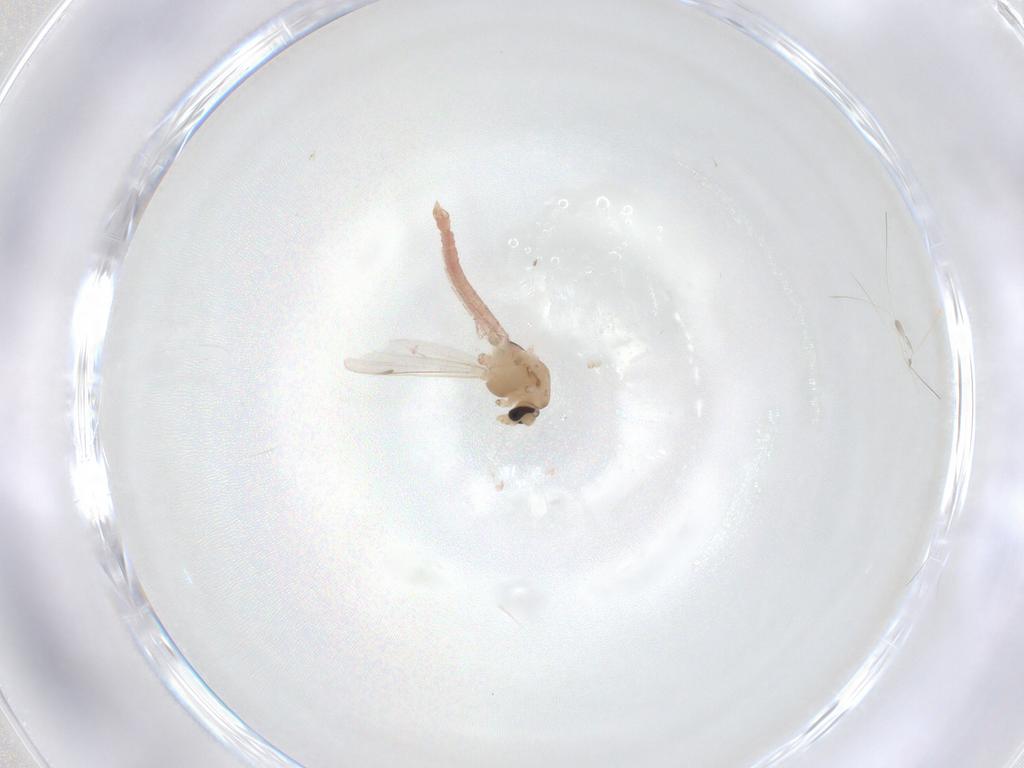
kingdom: Animalia
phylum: Arthropoda
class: Insecta
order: Diptera
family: Chironomidae
